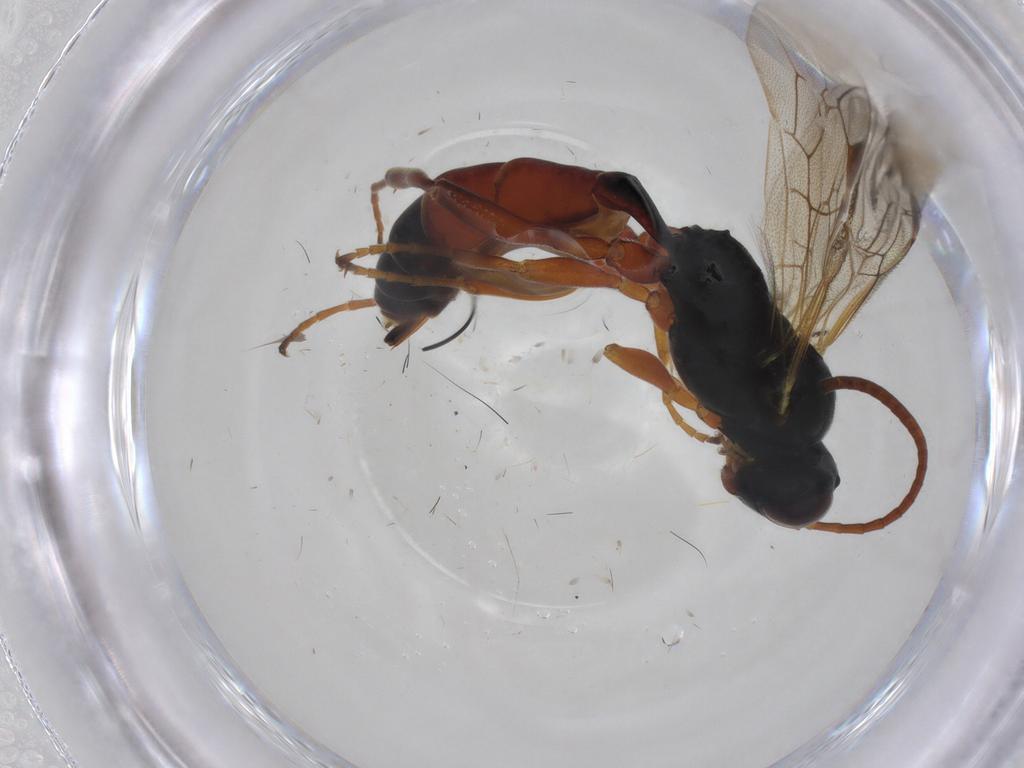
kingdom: Animalia
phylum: Arthropoda
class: Insecta
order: Hymenoptera
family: Ichneumonidae
